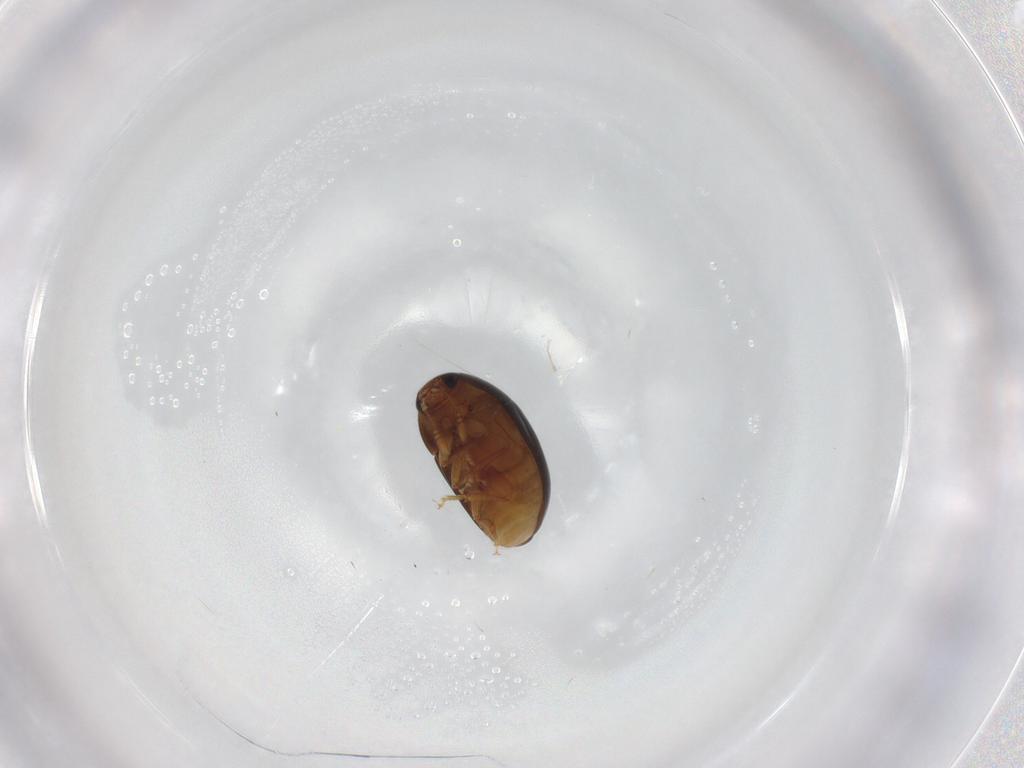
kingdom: Animalia
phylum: Arthropoda
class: Insecta
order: Coleoptera
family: Phalacridae
